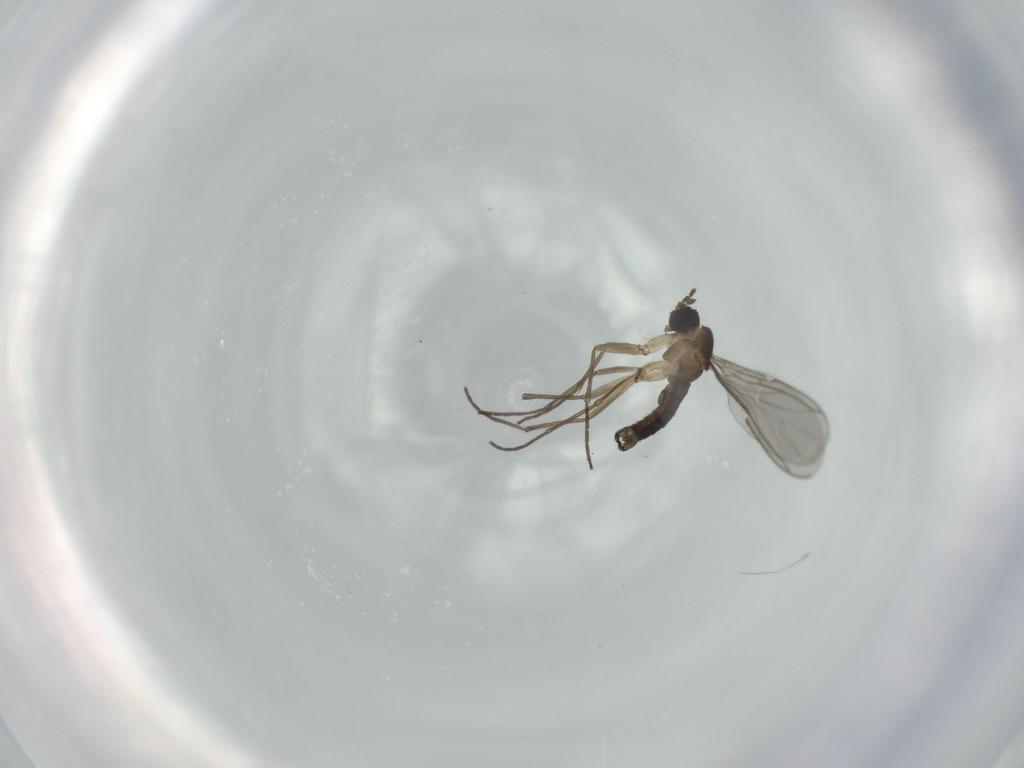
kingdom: Animalia
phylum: Arthropoda
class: Insecta
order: Diptera
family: Sciaridae
